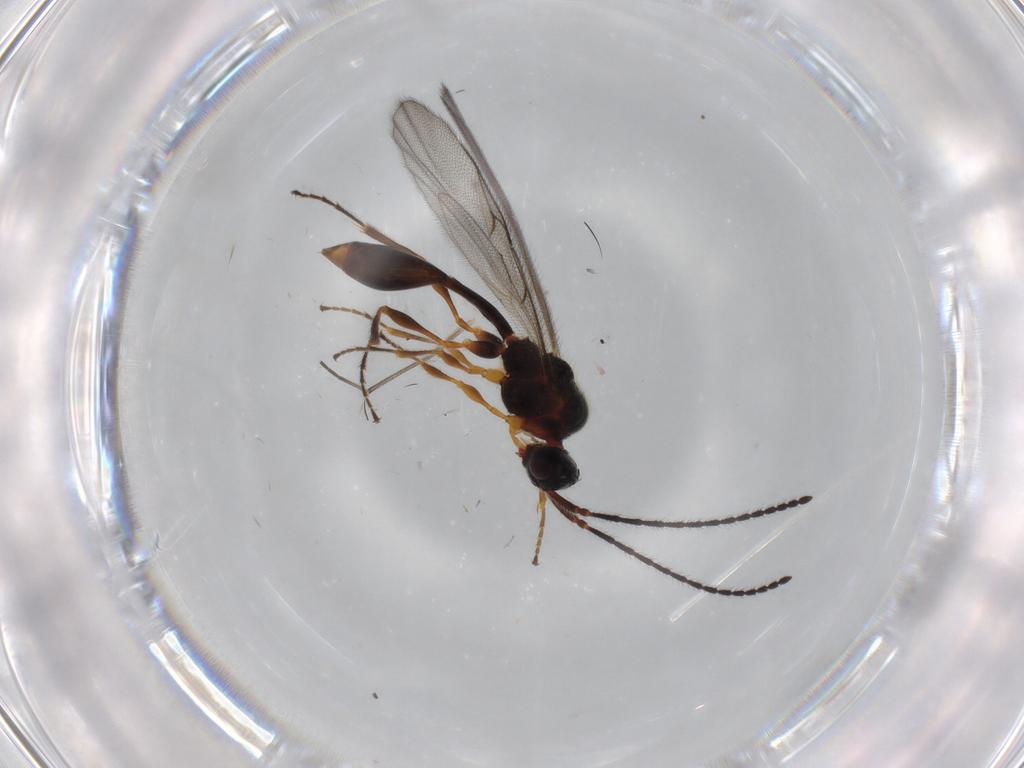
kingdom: Animalia
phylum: Arthropoda
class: Insecta
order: Hymenoptera
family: Diapriidae
